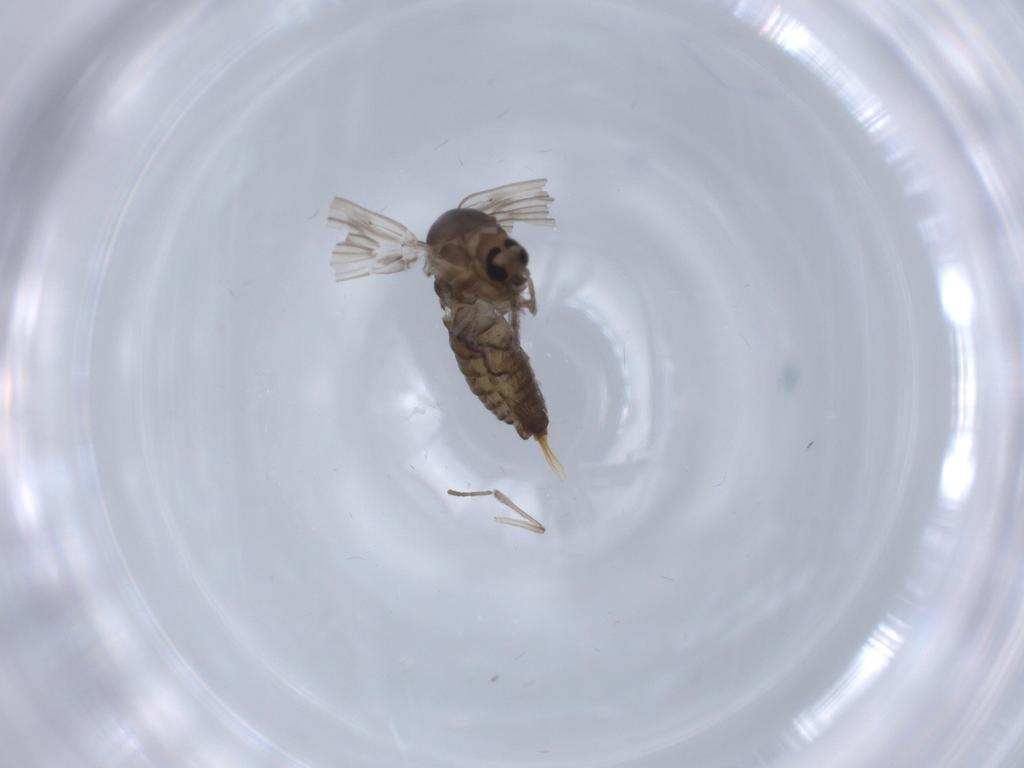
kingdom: Animalia
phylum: Arthropoda
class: Insecta
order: Diptera
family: Psychodidae
